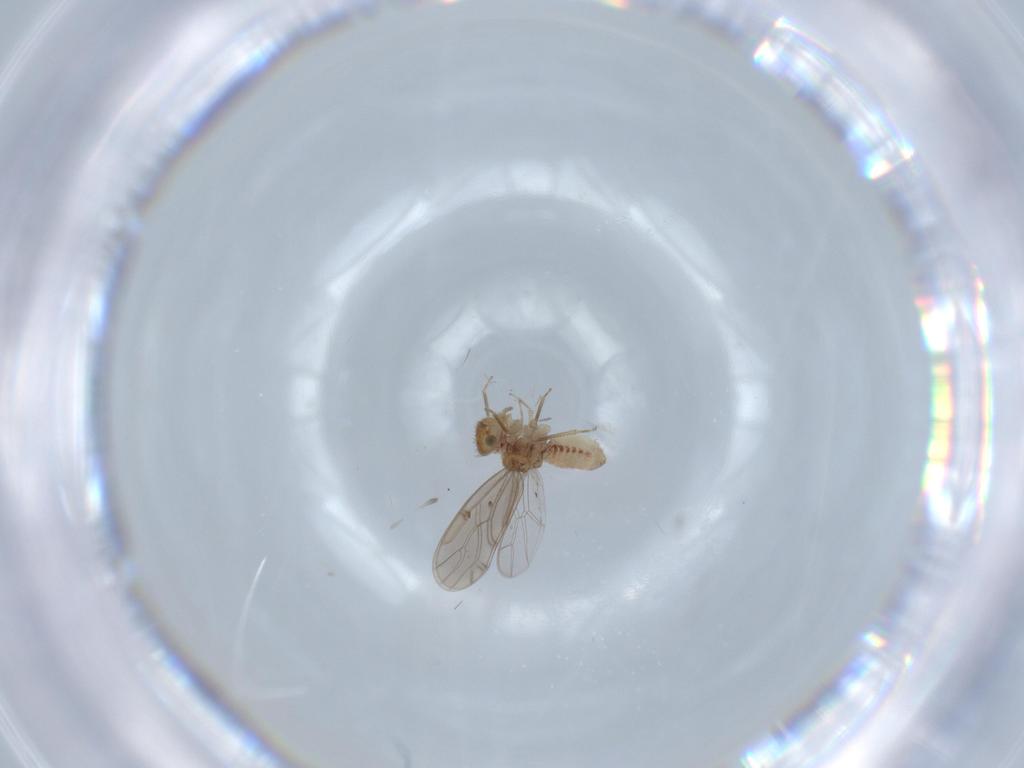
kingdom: Animalia
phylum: Arthropoda
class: Insecta
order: Psocodea
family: Ectopsocidae
